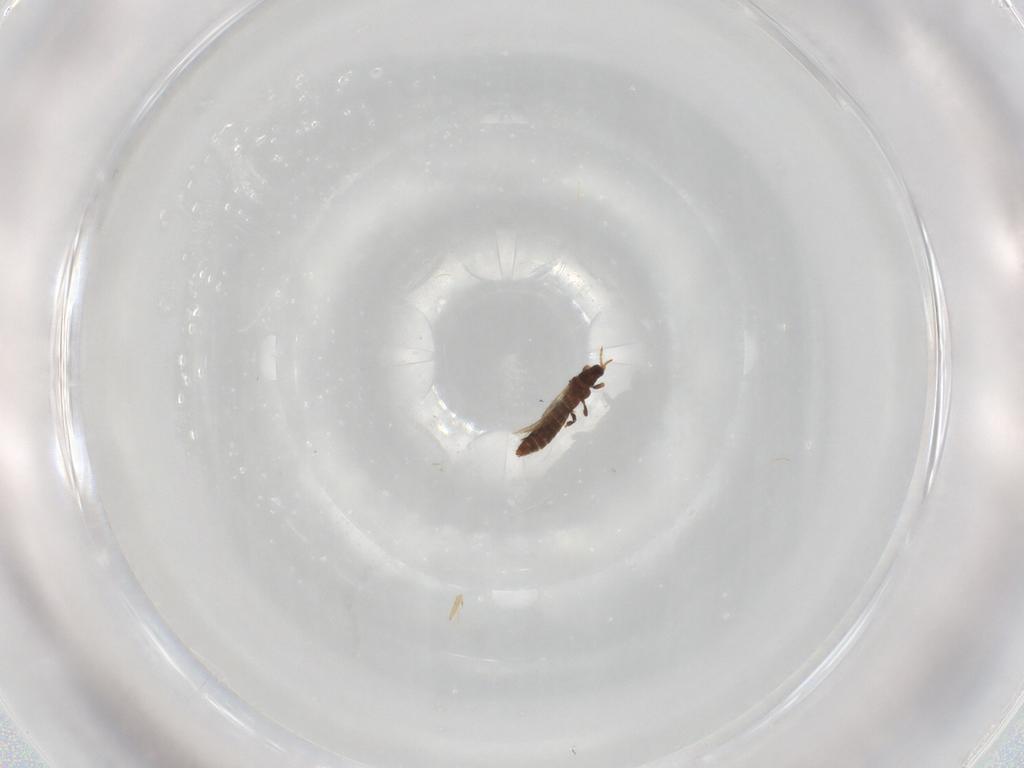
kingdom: Animalia
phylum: Arthropoda
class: Insecta
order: Thysanoptera
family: Thripidae
